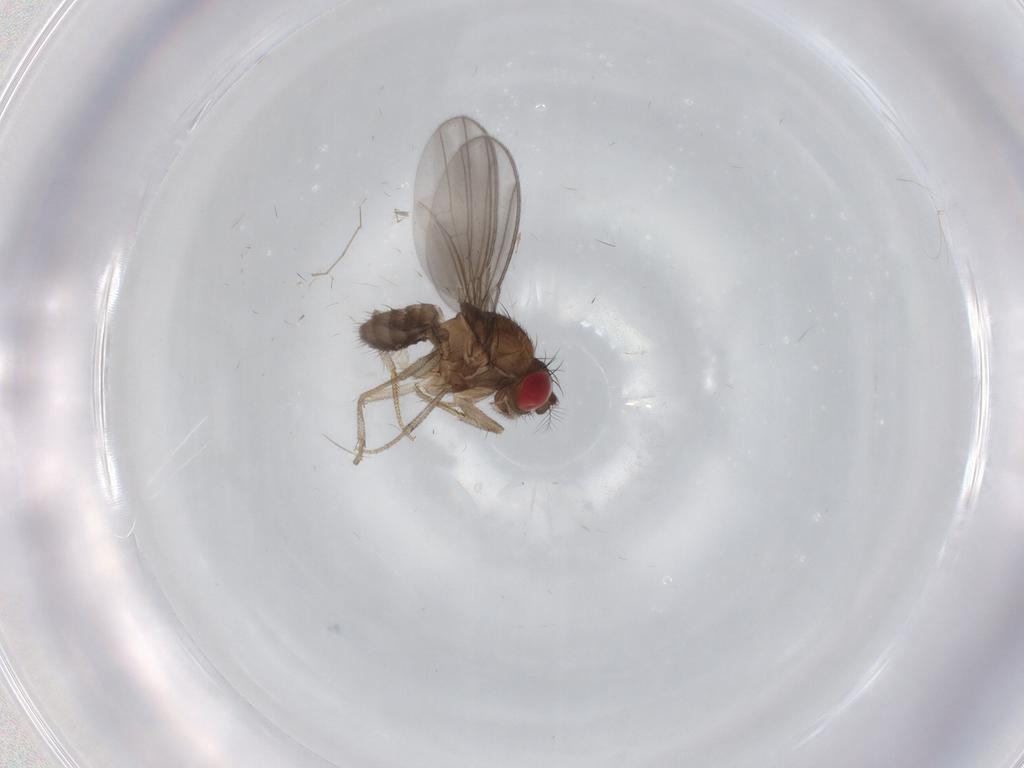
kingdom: Animalia
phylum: Arthropoda
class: Insecta
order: Diptera
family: Drosophilidae
